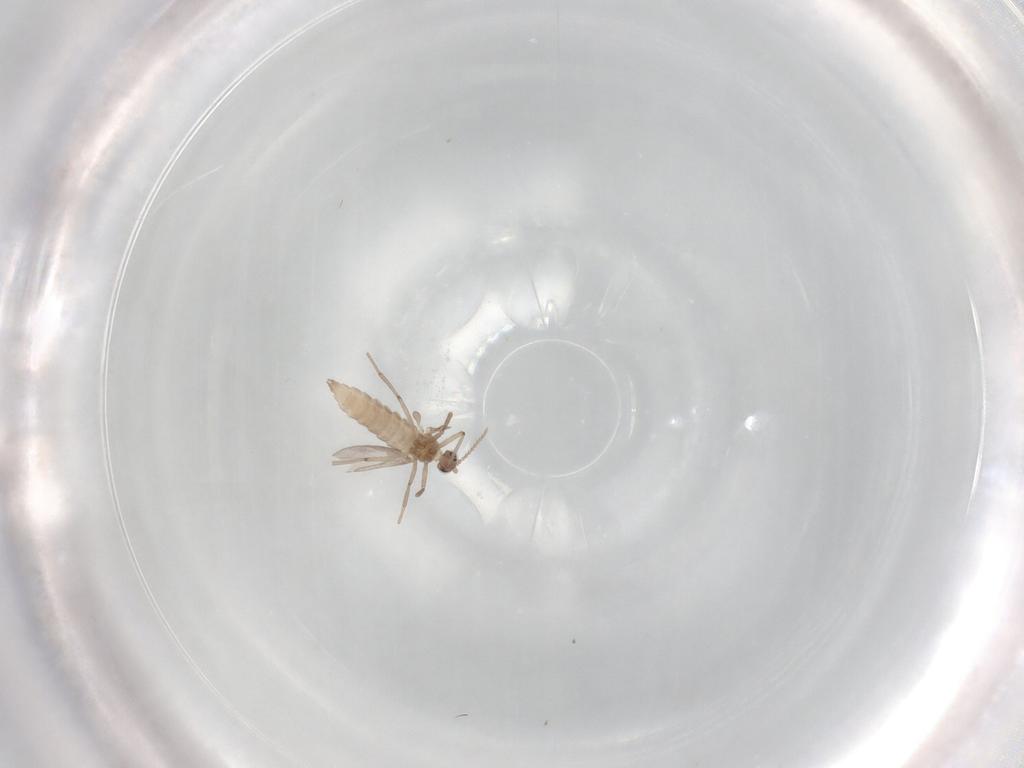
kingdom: Animalia
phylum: Arthropoda
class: Insecta
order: Diptera
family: Cecidomyiidae
